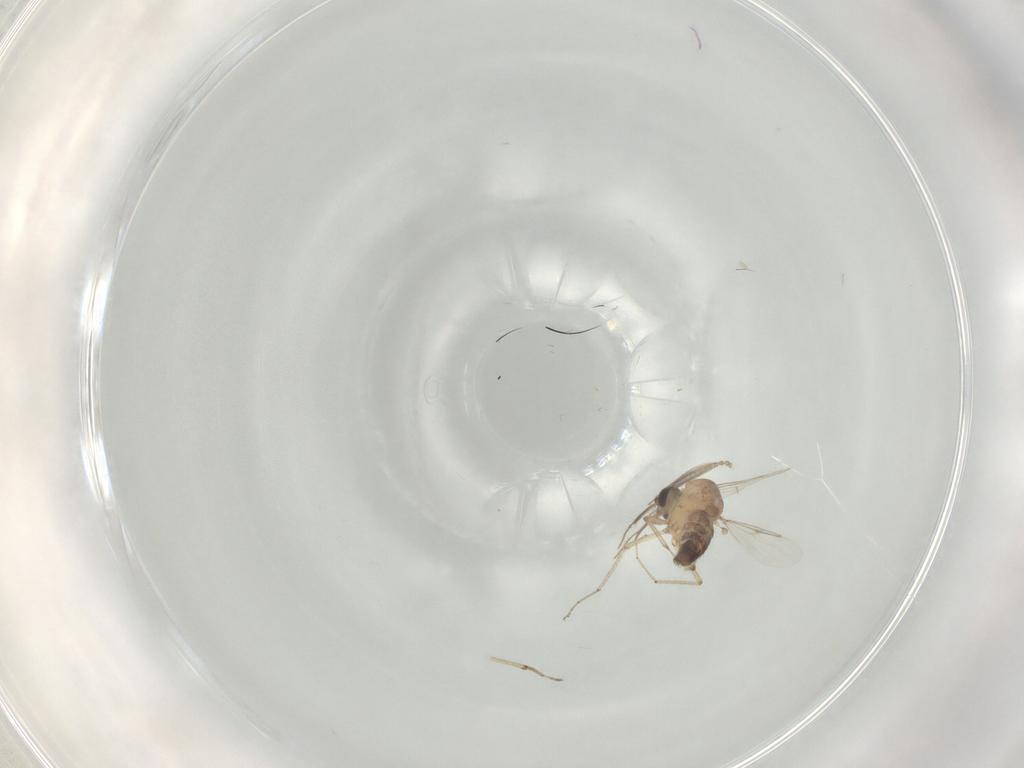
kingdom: Animalia
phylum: Arthropoda
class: Insecta
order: Diptera
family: Ceratopogonidae
